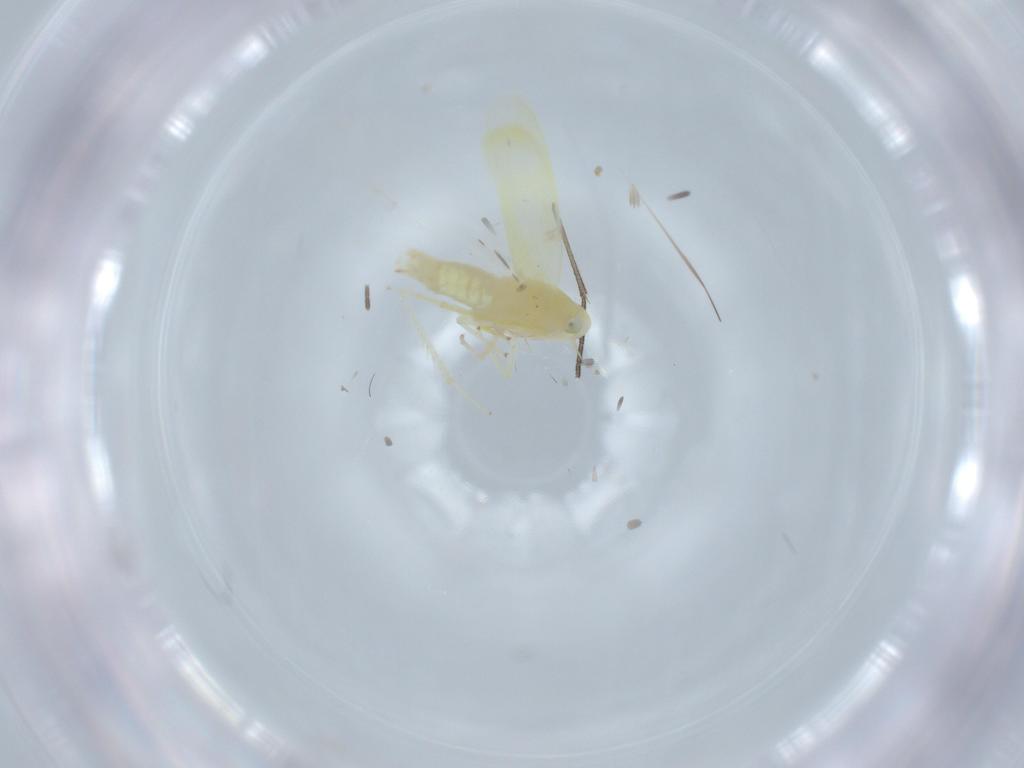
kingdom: Animalia
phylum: Arthropoda
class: Insecta
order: Hemiptera
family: Cicadellidae
